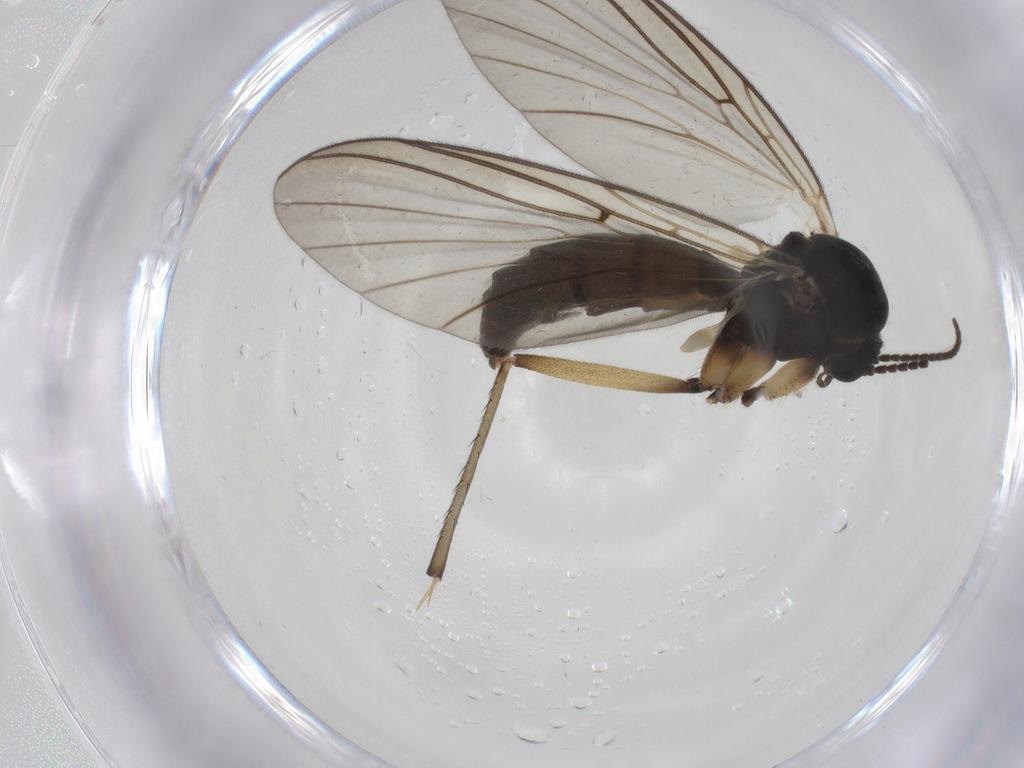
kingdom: Animalia
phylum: Arthropoda
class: Insecta
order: Diptera
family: Mycetophilidae
